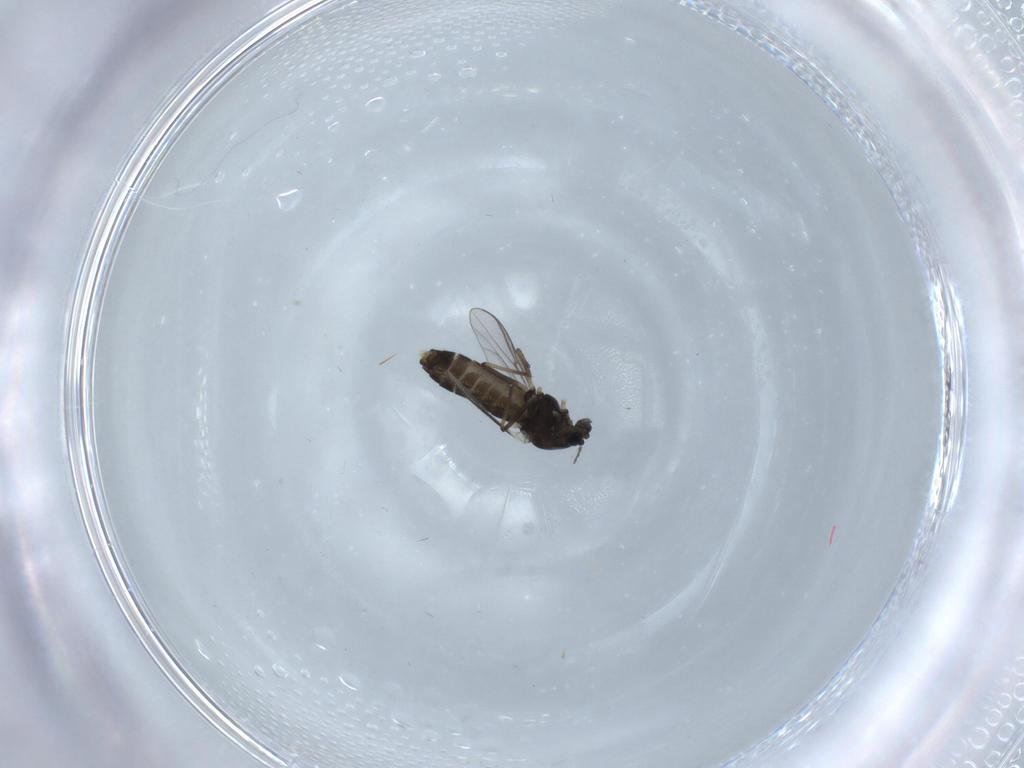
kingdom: Animalia
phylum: Arthropoda
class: Insecta
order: Diptera
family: Chironomidae
